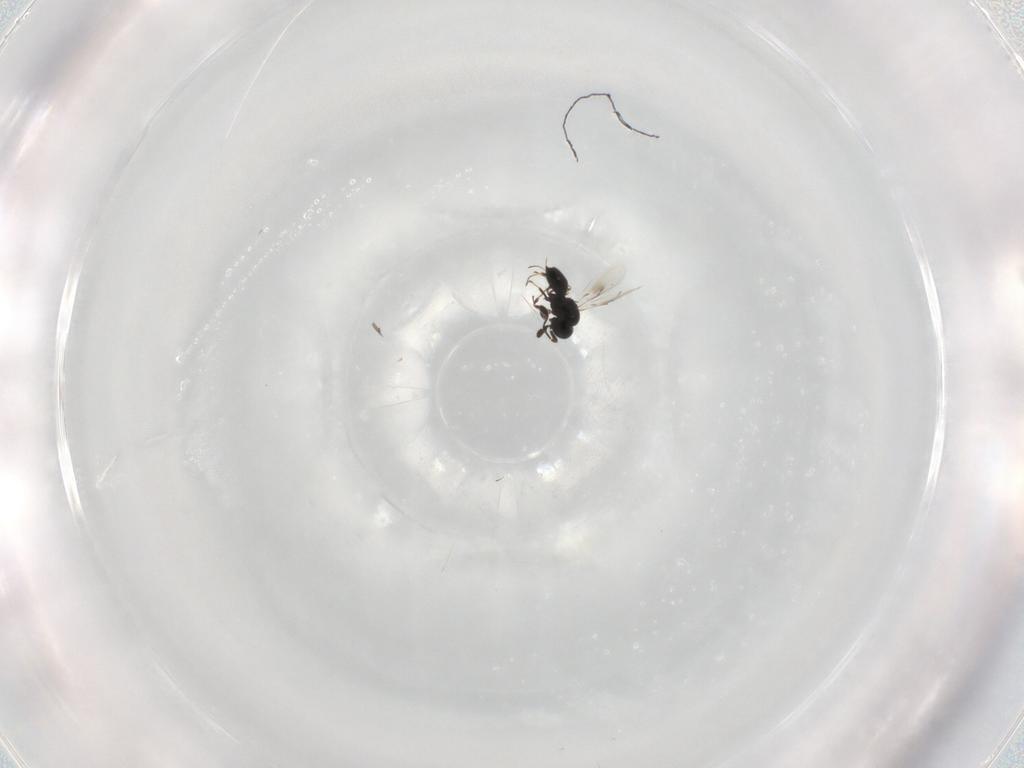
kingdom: Animalia
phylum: Arthropoda
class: Insecta
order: Hymenoptera
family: Scelionidae
